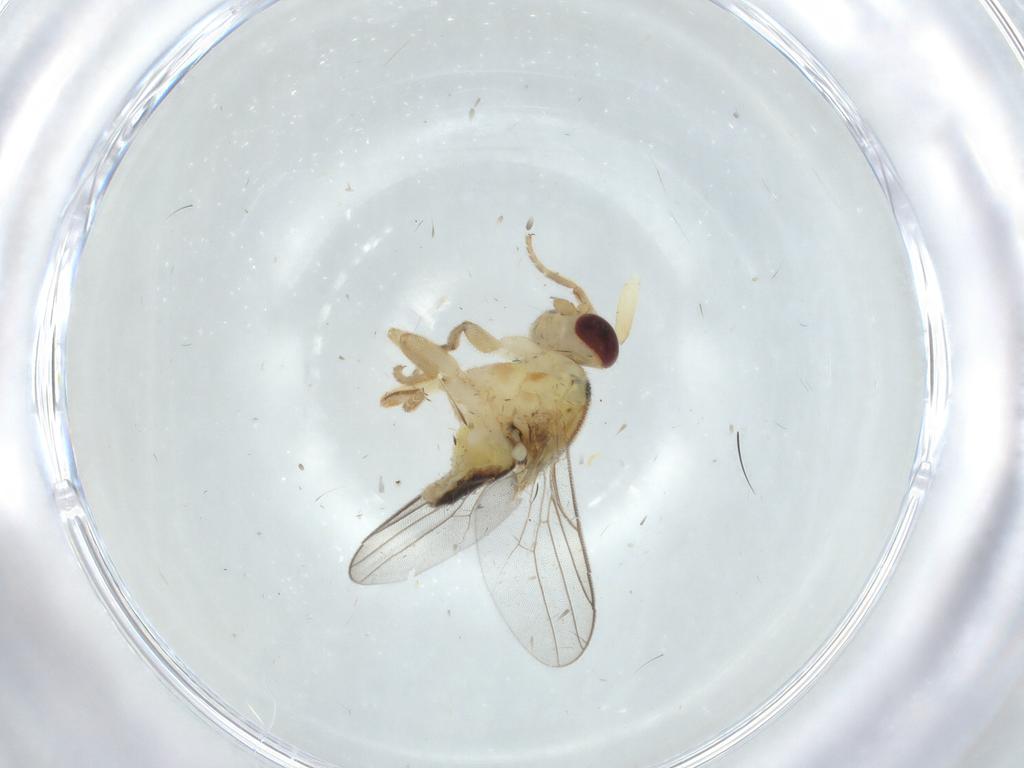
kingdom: Animalia
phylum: Arthropoda
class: Insecta
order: Diptera
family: Chloropidae
